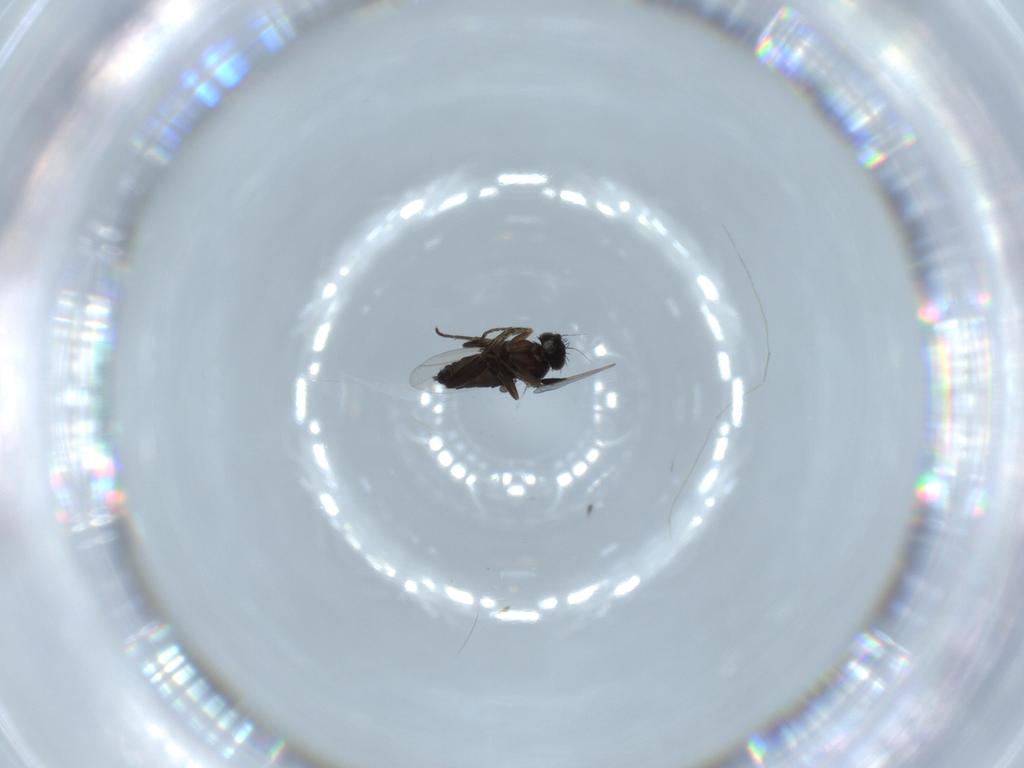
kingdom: Animalia
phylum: Arthropoda
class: Insecta
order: Diptera
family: Phoridae
